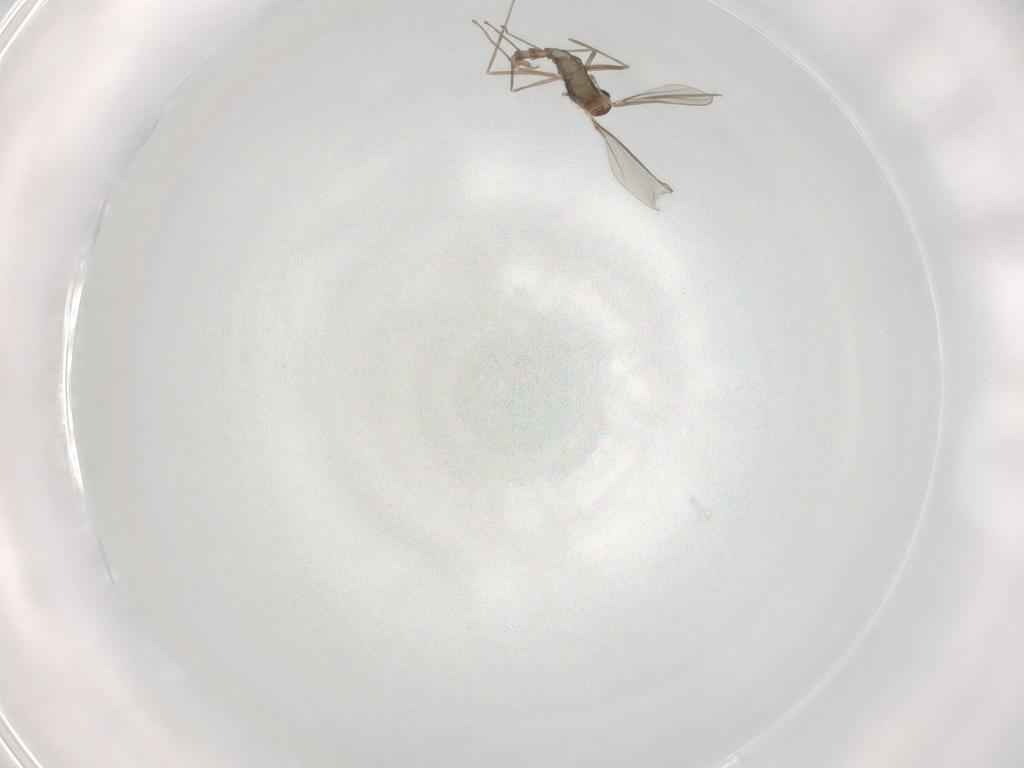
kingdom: Animalia
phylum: Arthropoda
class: Insecta
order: Diptera
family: Cecidomyiidae
